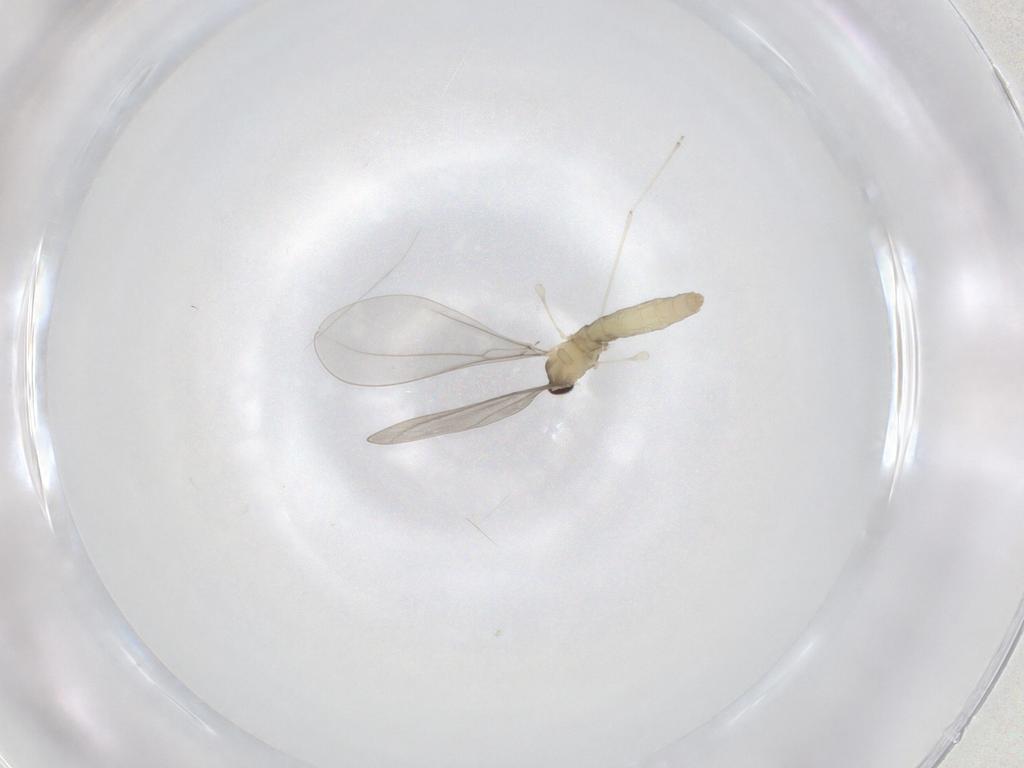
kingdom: Animalia
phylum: Arthropoda
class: Insecta
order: Diptera
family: Cecidomyiidae
